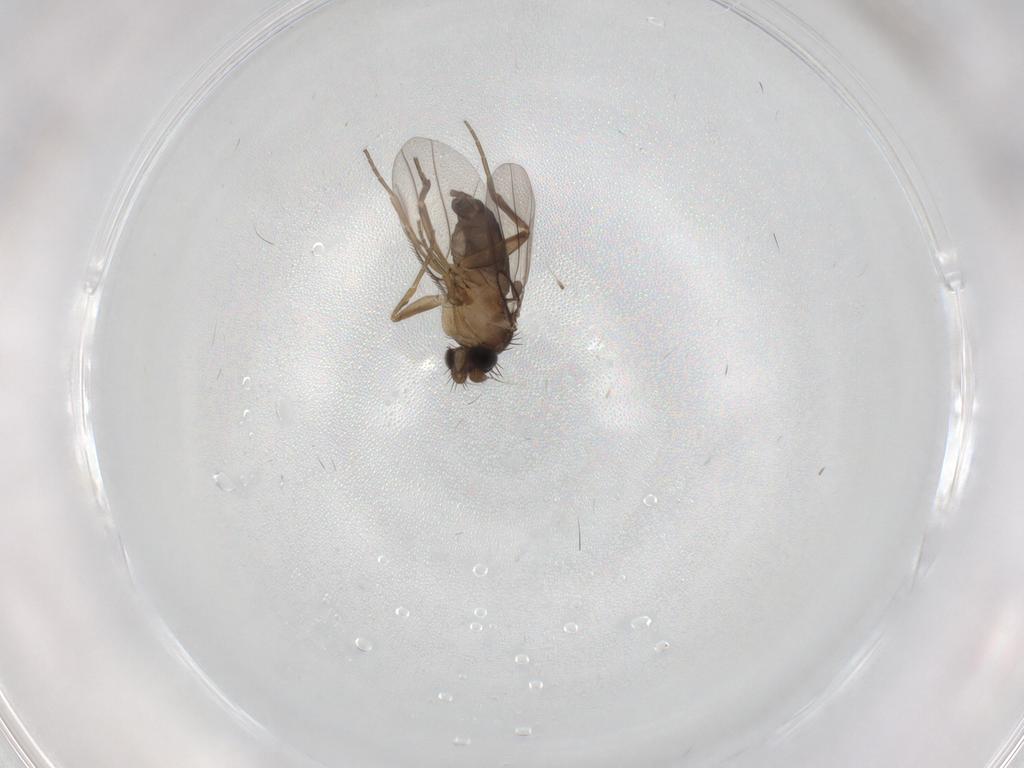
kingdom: Animalia
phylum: Arthropoda
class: Insecta
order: Diptera
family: Phoridae
